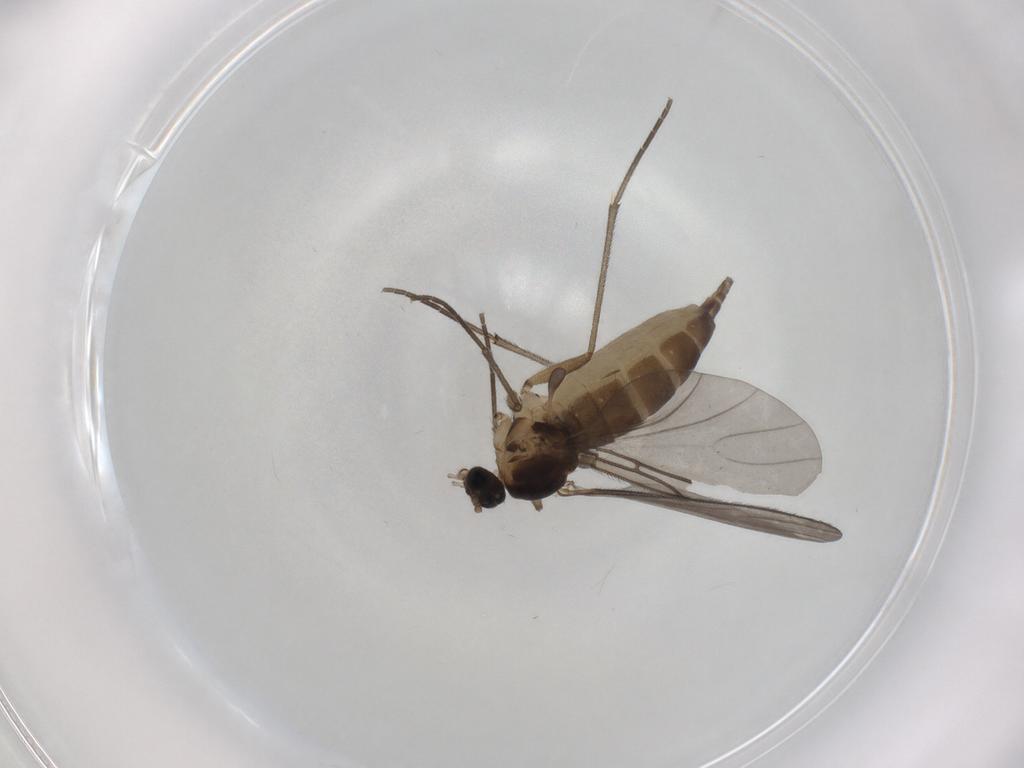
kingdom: Animalia
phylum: Arthropoda
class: Insecta
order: Diptera
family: Sciaridae
